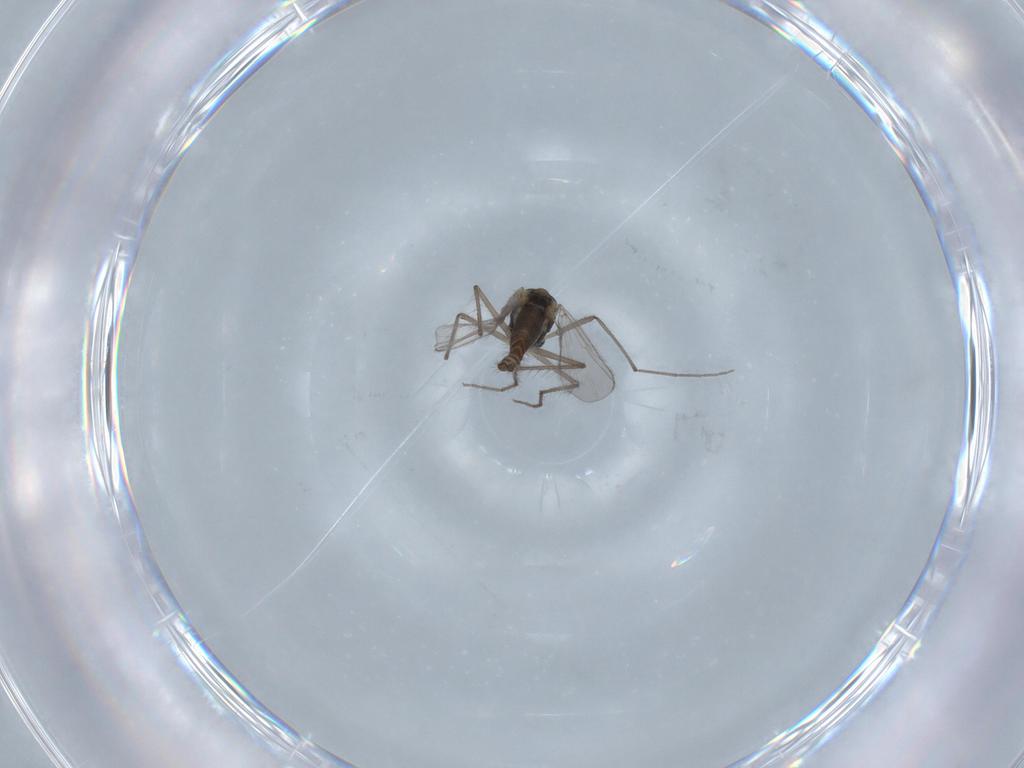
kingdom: Animalia
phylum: Arthropoda
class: Insecta
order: Diptera
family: Chironomidae
